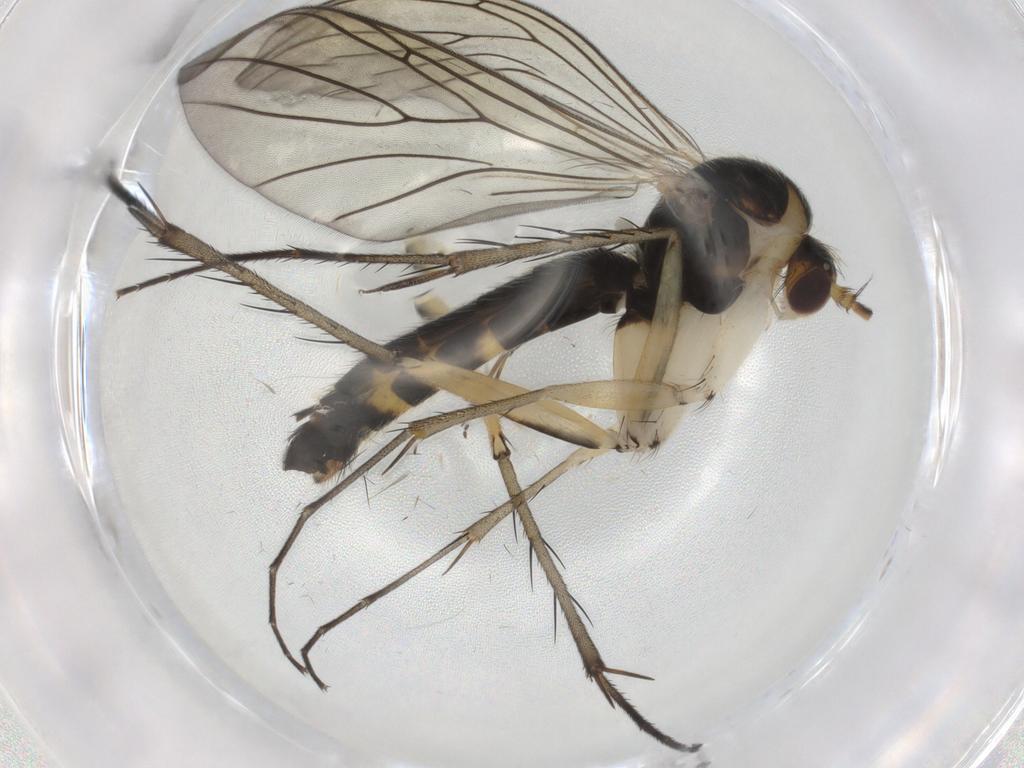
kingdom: Animalia
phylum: Arthropoda
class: Insecta
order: Diptera
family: Mycetophilidae
